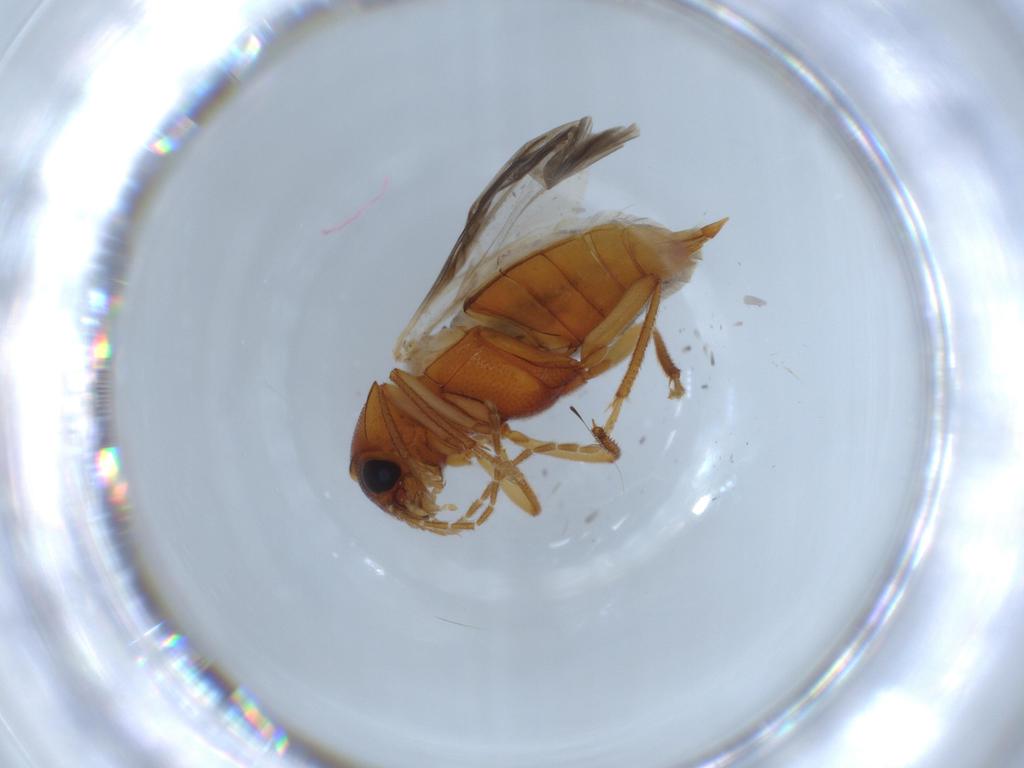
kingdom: Animalia
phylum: Arthropoda
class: Insecta
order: Coleoptera
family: Ptilodactylidae
